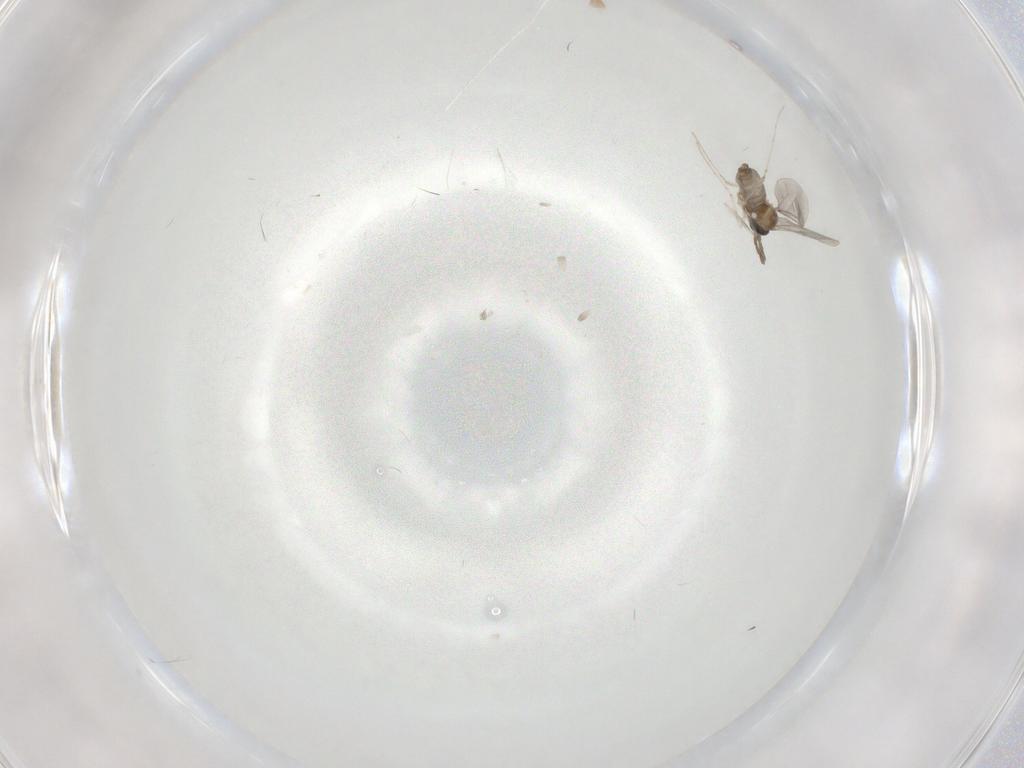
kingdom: Animalia
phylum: Arthropoda
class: Insecta
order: Diptera
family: Cecidomyiidae
